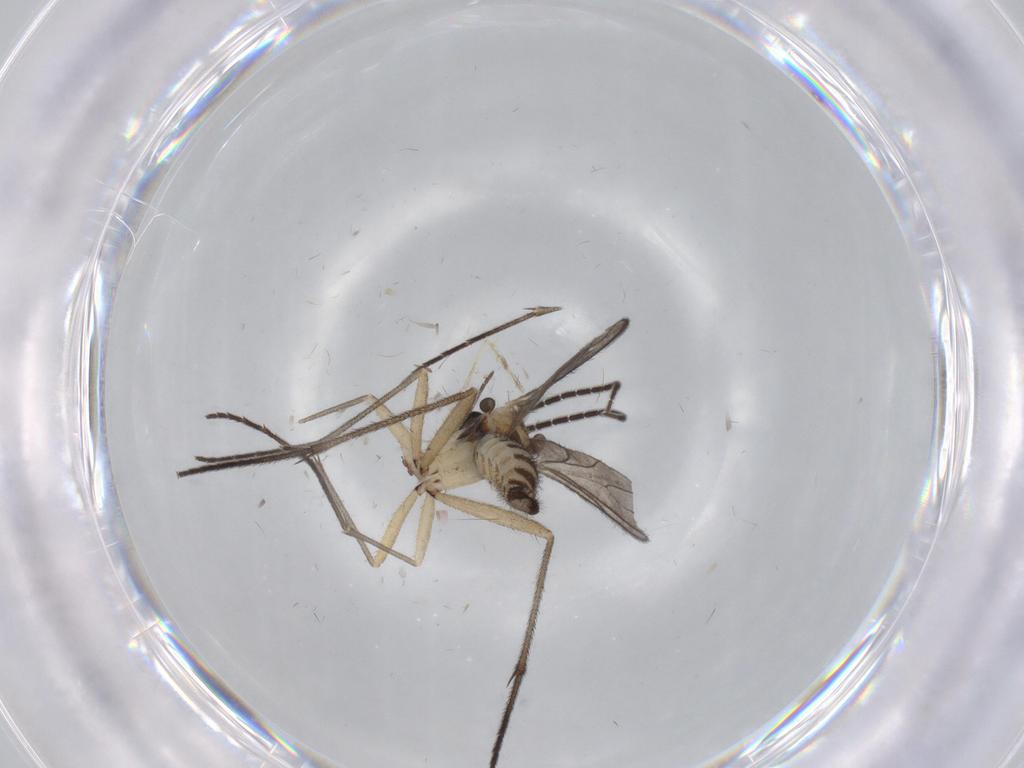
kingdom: Animalia
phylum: Arthropoda
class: Insecta
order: Diptera
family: Sciaridae
